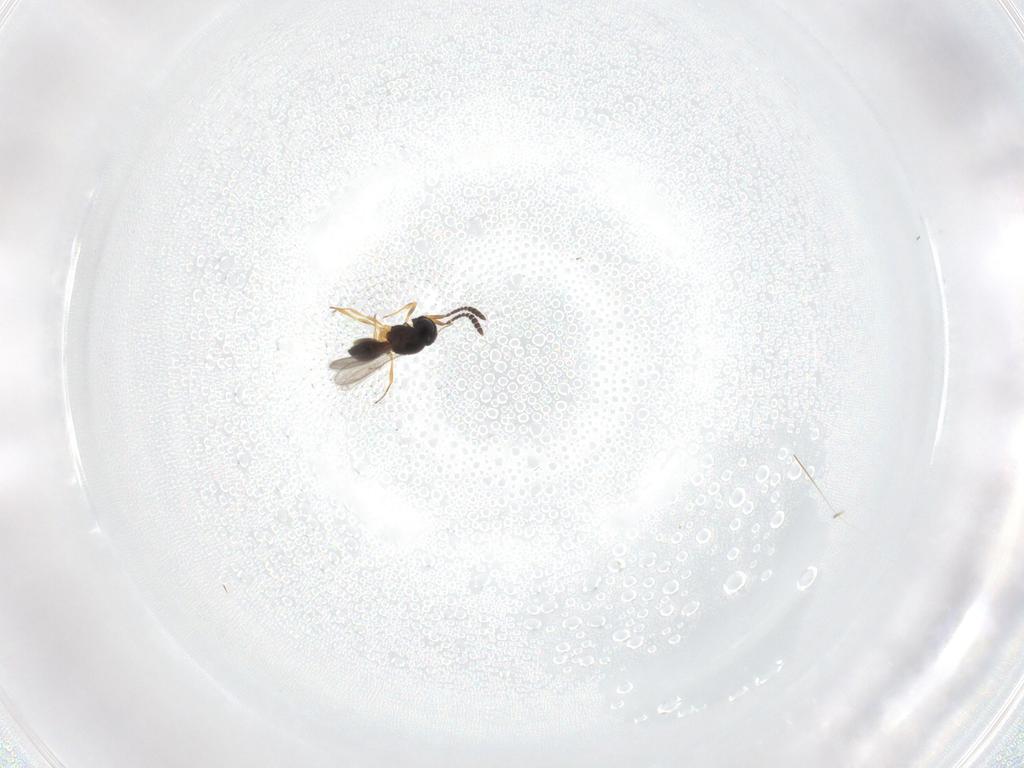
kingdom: Animalia
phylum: Arthropoda
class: Insecta
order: Hymenoptera
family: Scelionidae
